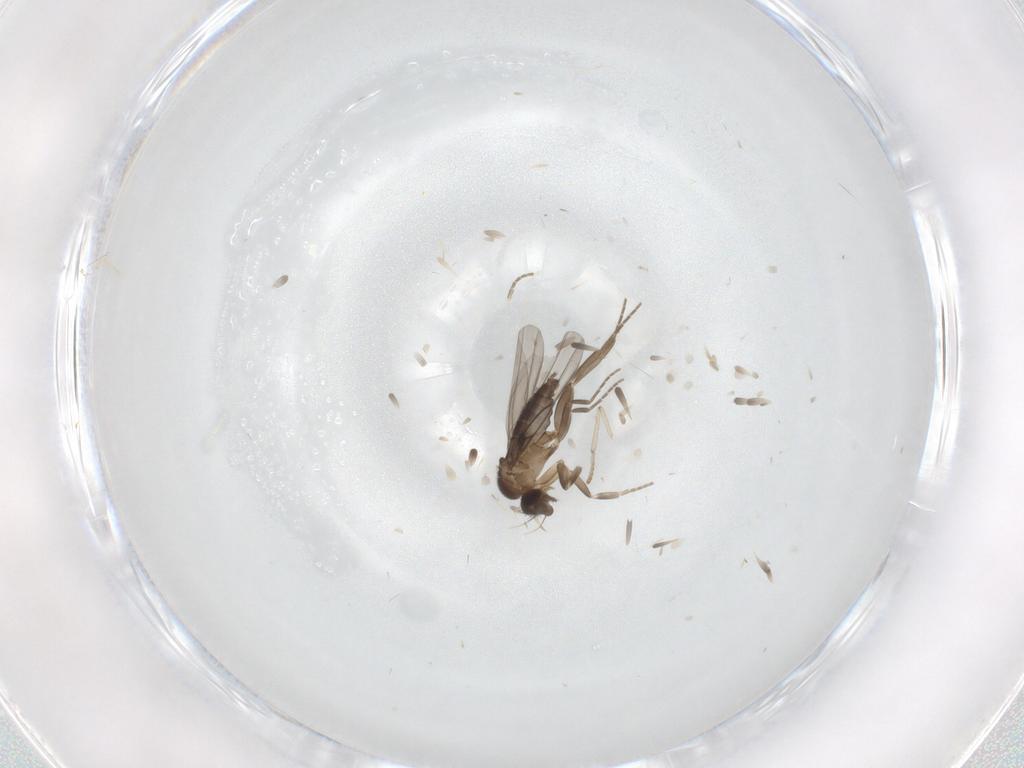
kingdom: Animalia
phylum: Arthropoda
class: Insecta
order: Diptera
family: Psychodidae
